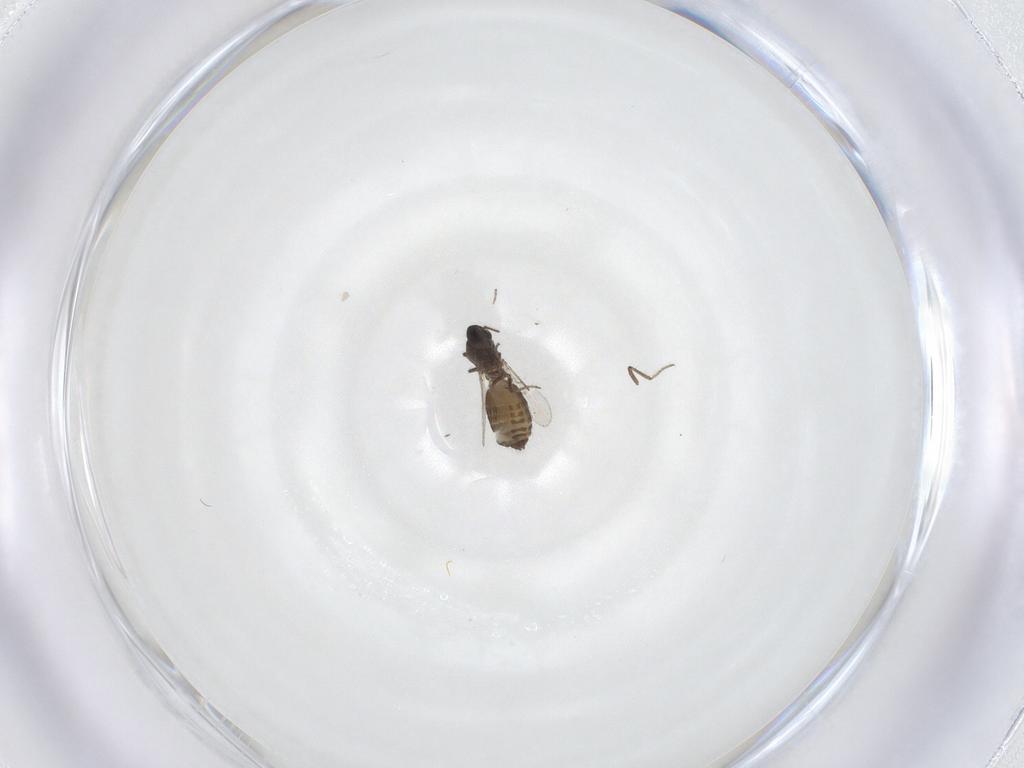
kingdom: Animalia
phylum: Arthropoda
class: Insecta
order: Diptera
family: Ceratopogonidae
